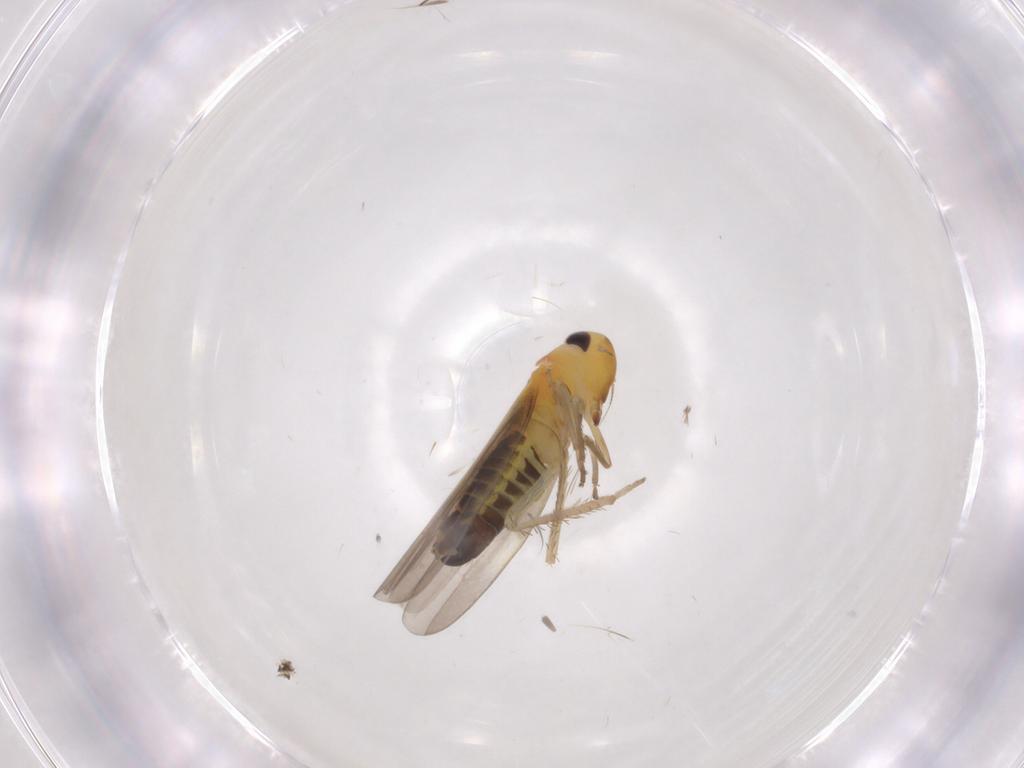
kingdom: Animalia
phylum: Arthropoda
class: Insecta
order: Hemiptera
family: Cicadellidae
